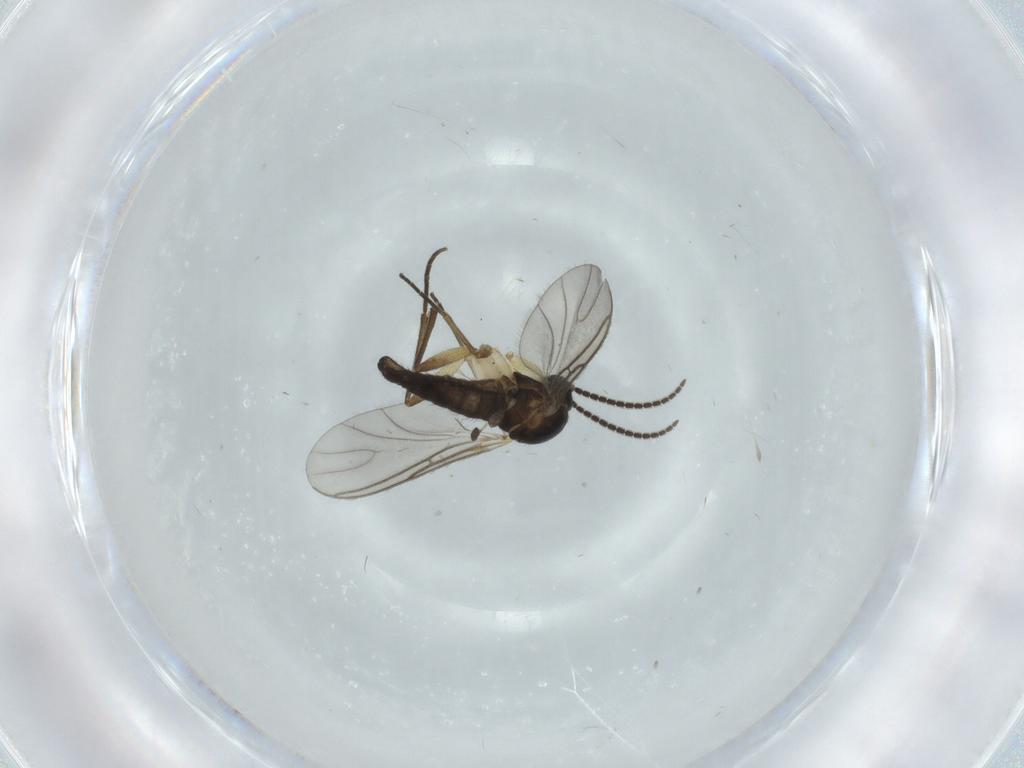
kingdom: Animalia
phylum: Arthropoda
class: Insecta
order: Diptera
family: Sciaridae
